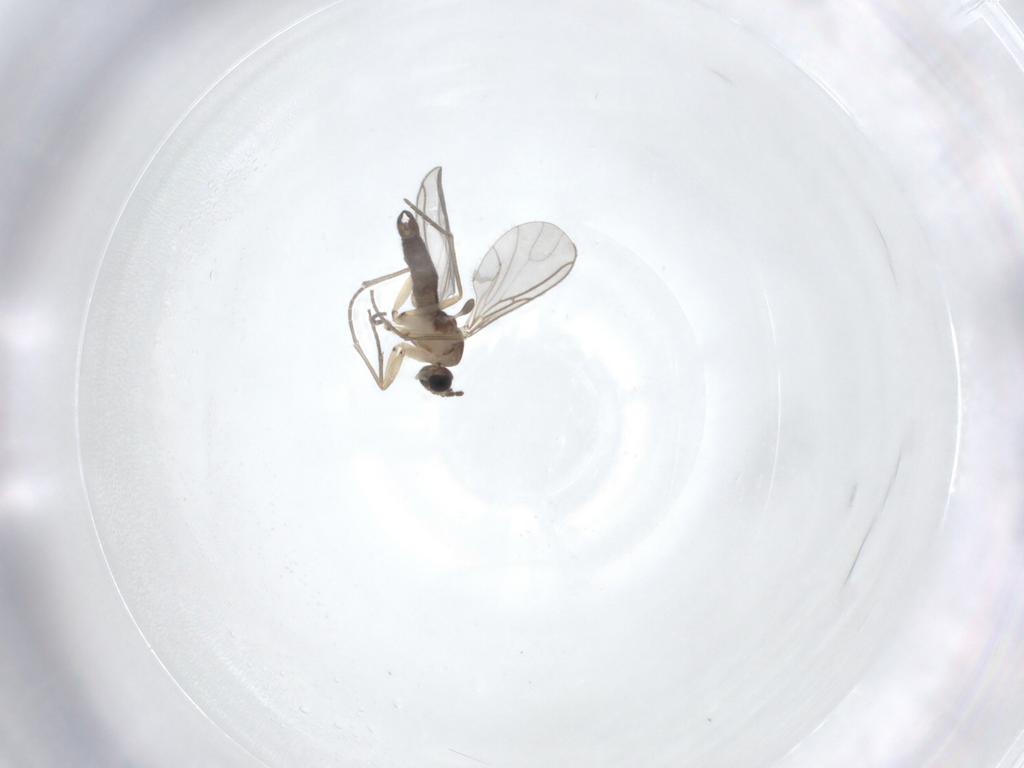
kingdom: Animalia
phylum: Arthropoda
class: Insecta
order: Diptera
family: Sciaridae
